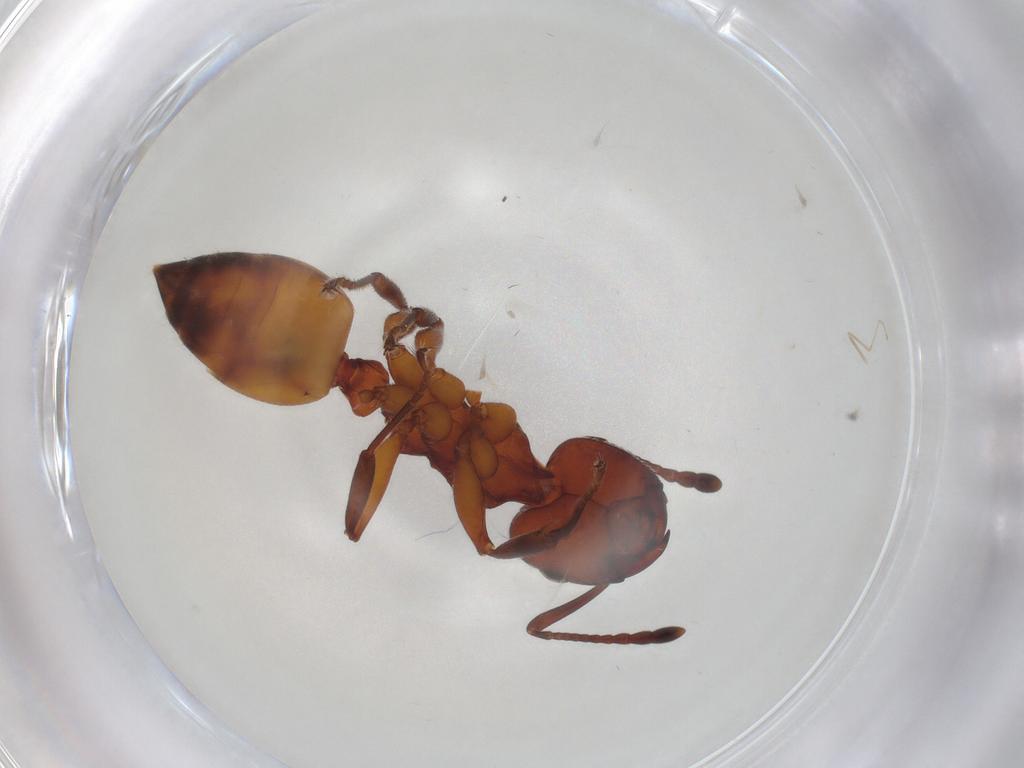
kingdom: Animalia
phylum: Arthropoda
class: Insecta
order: Hymenoptera
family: Formicidae
